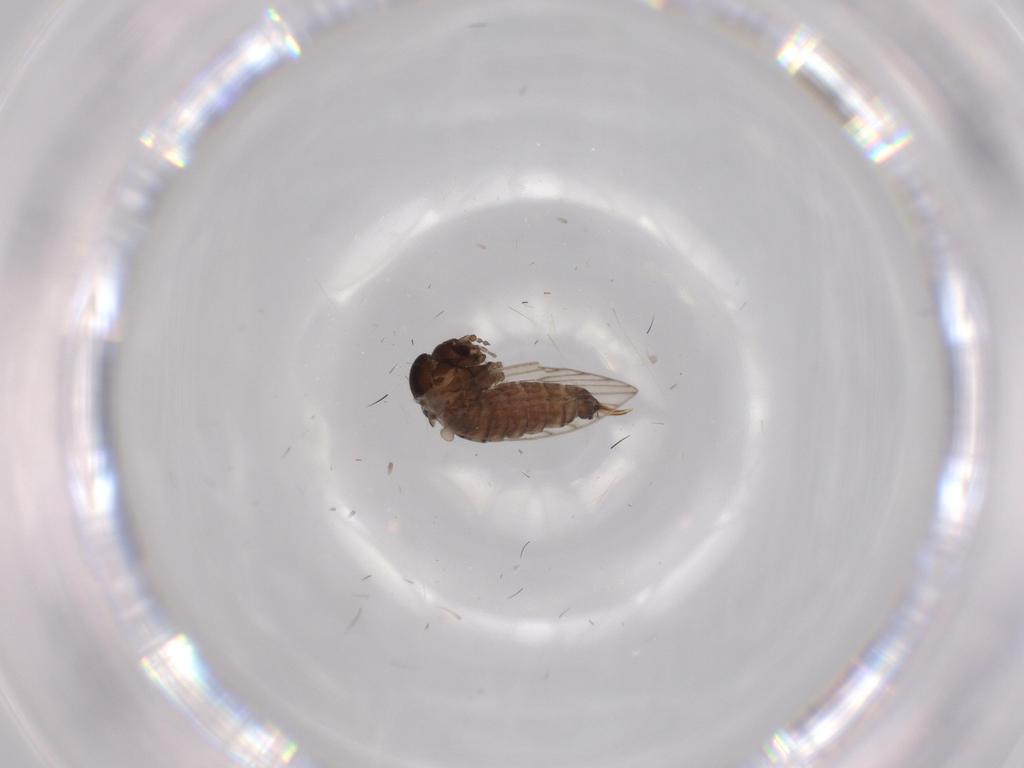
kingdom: Animalia
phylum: Arthropoda
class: Insecta
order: Diptera
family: Psychodidae
